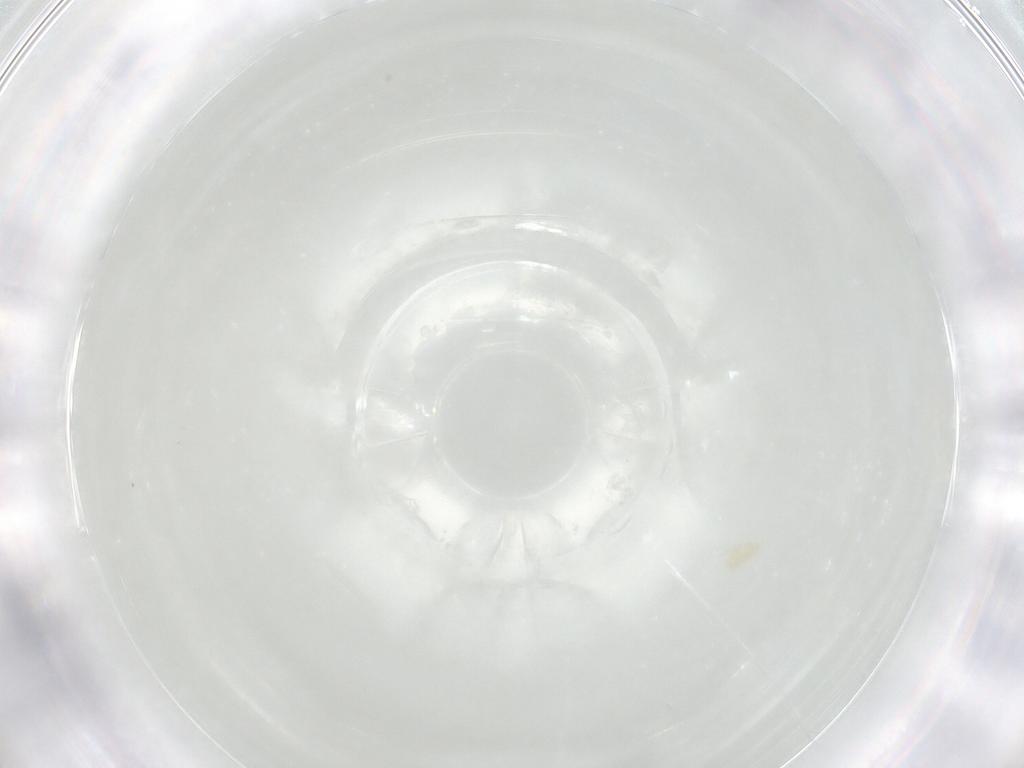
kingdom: Animalia
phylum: Arthropoda
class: Arachnida
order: Trombidiformes
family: Eupodidae
